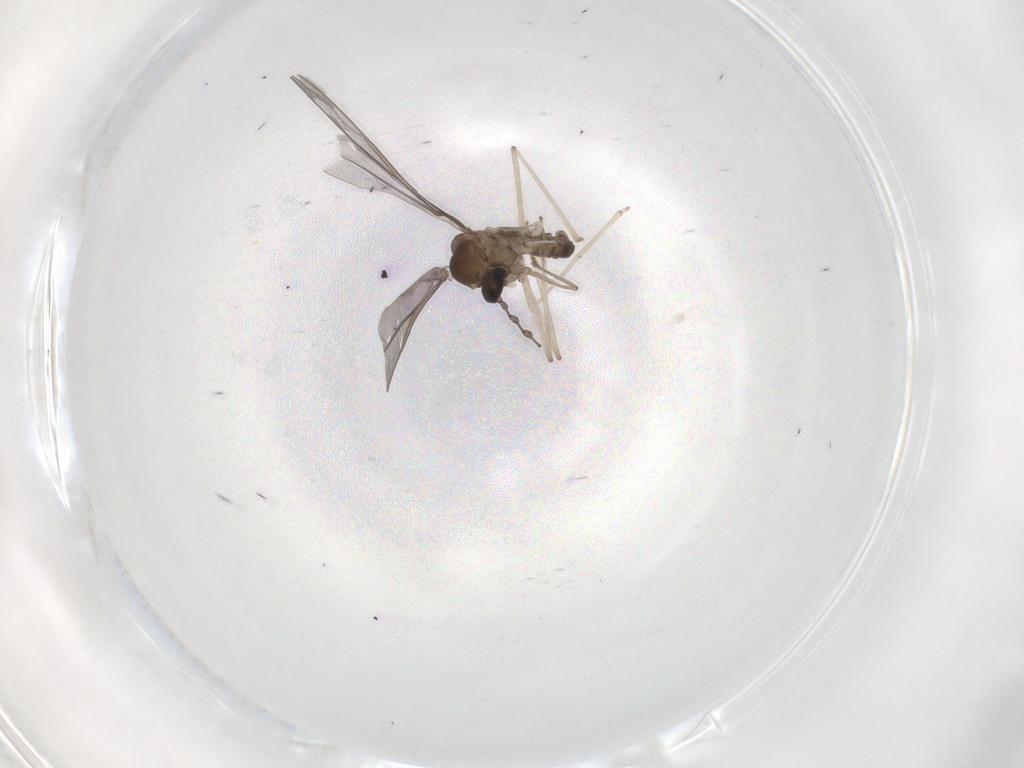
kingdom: Animalia
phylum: Arthropoda
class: Insecta
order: Diptera
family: Cecidomyiidae
